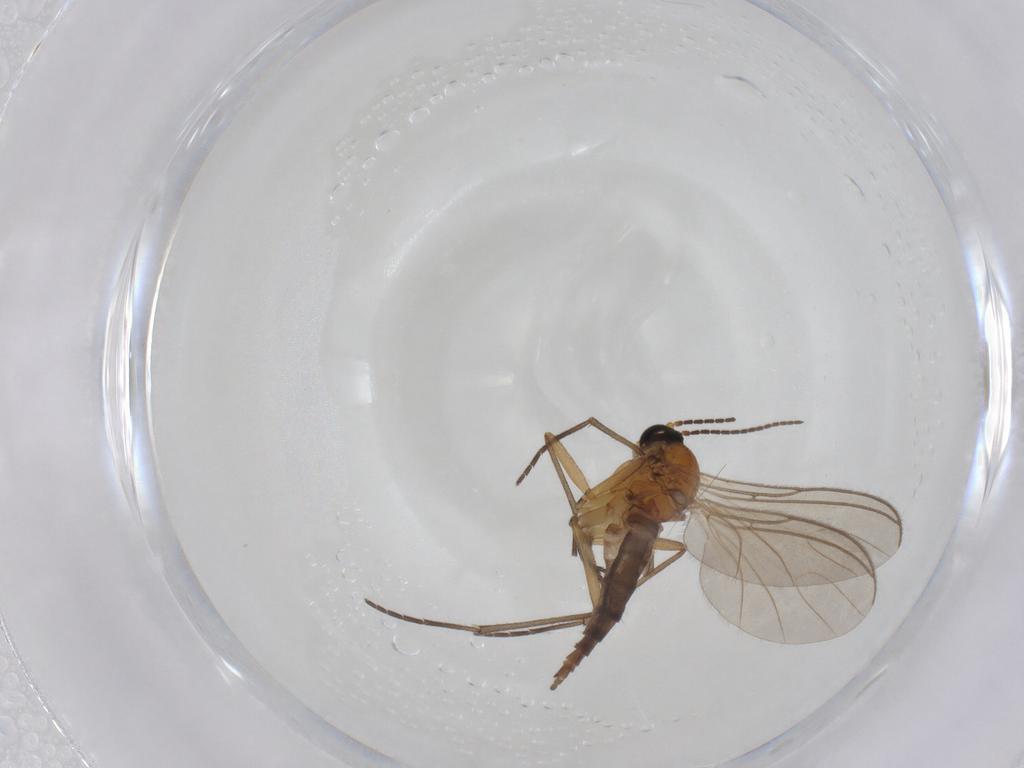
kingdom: Animalia
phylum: Arthropoda
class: Insecta
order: Diptera
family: Sciaridae
